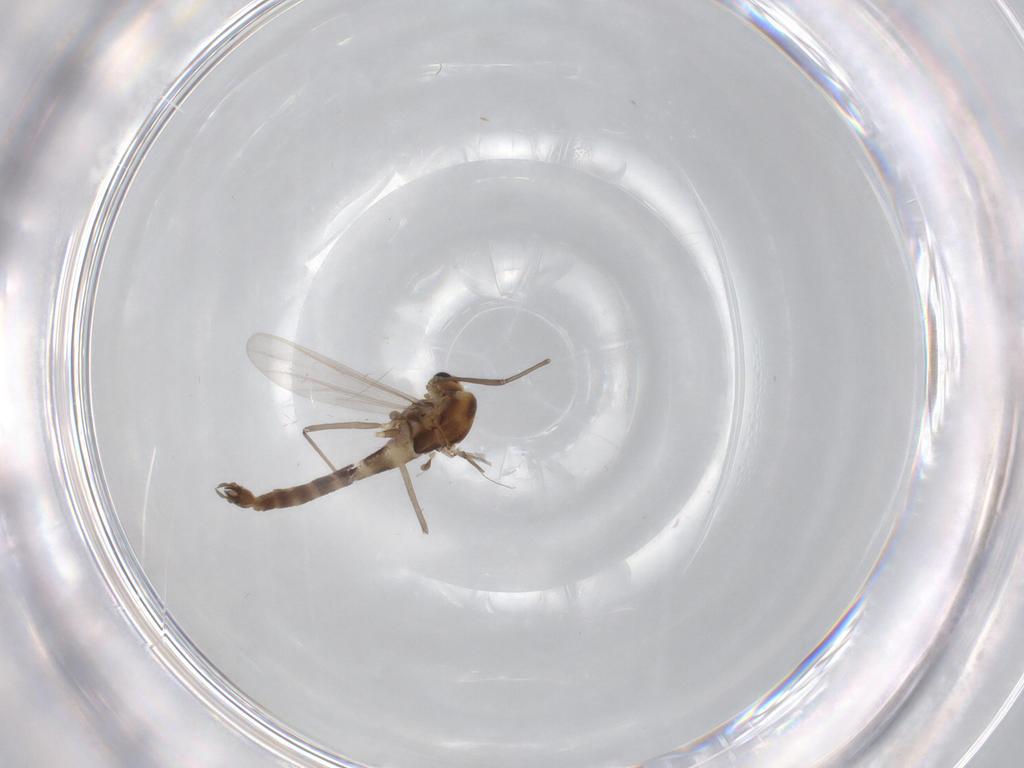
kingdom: Animalia
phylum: Arthropoda
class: Insecta
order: Diptera
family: Chironomidae
